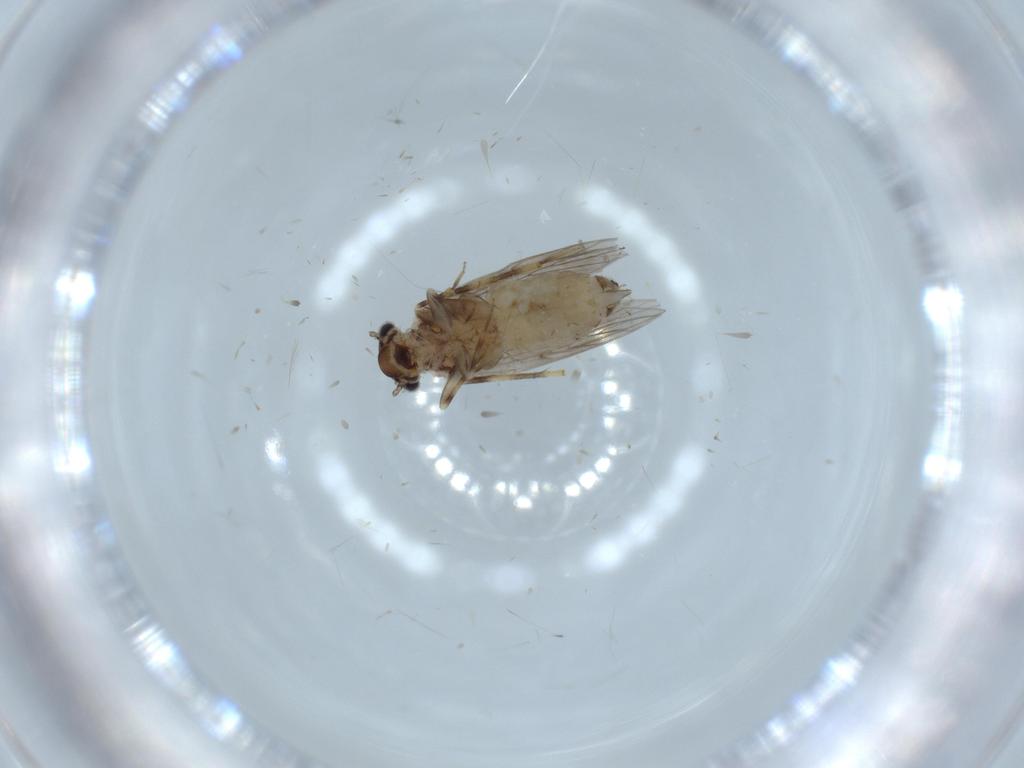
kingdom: Animalia
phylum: Arthropoda
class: Insecta
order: Psocodea
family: Lepidopsocidae
